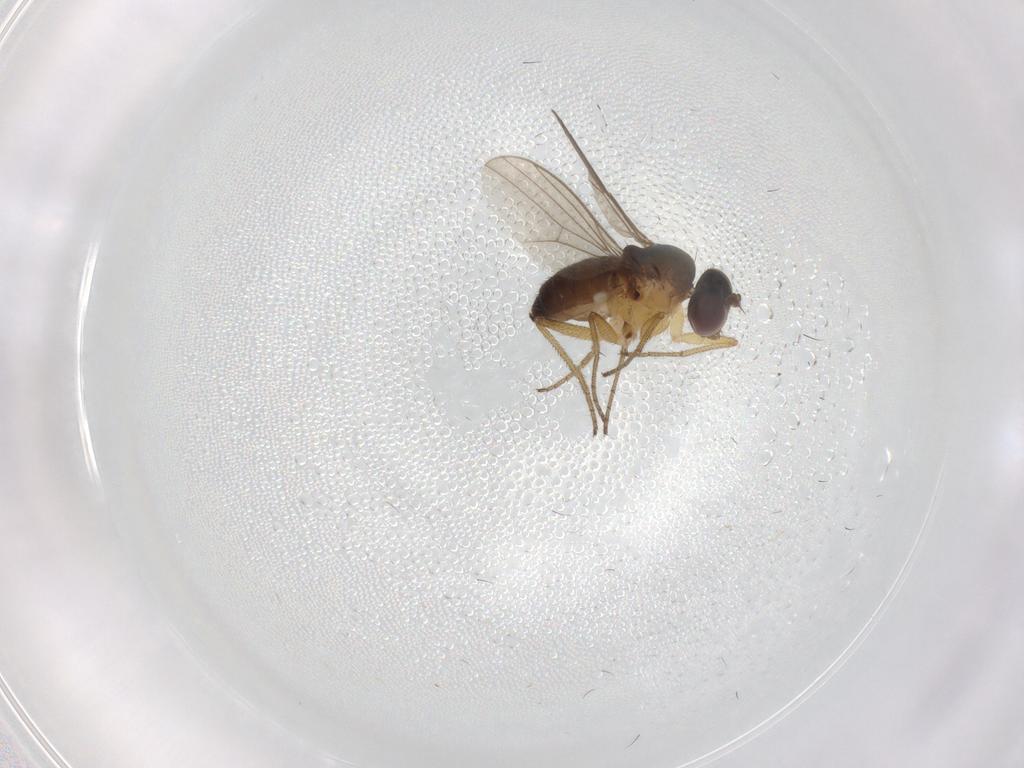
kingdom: Animalia
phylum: Arthropoda
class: Insecta
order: Diptera
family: Dolichopodidae
